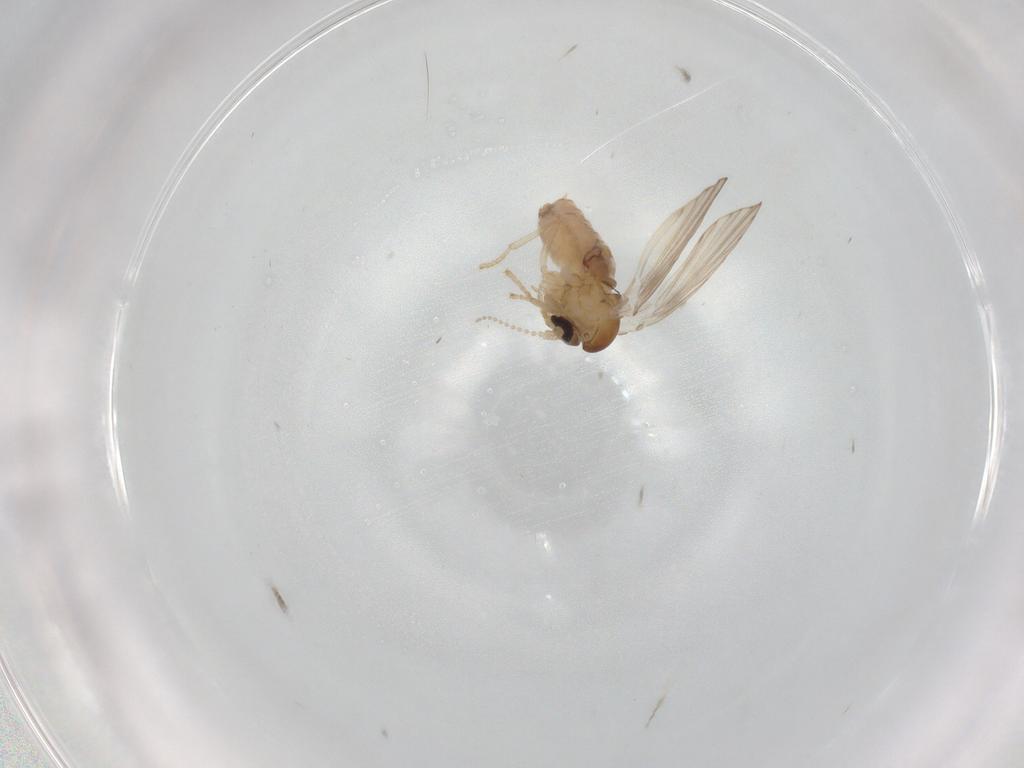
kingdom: Animalia
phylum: Arthropoda
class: Insecta
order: Diptera
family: Psychodidae
